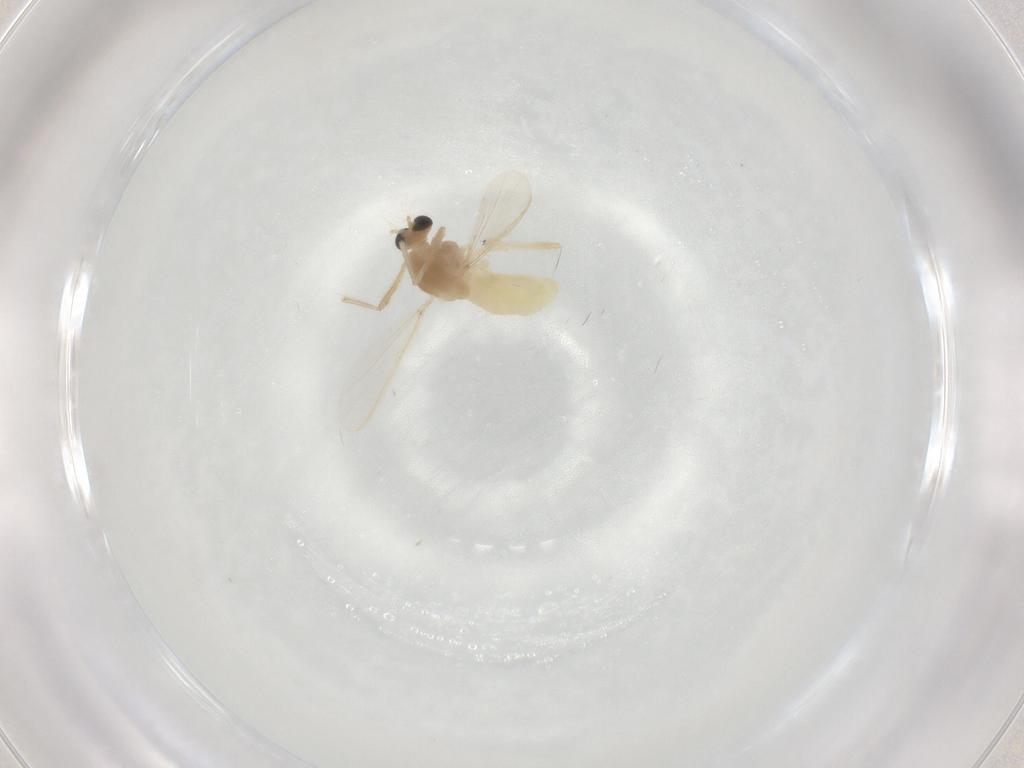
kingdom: Animalia
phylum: Arthropoda
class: Insecta
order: Diptera
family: Chironomidae
